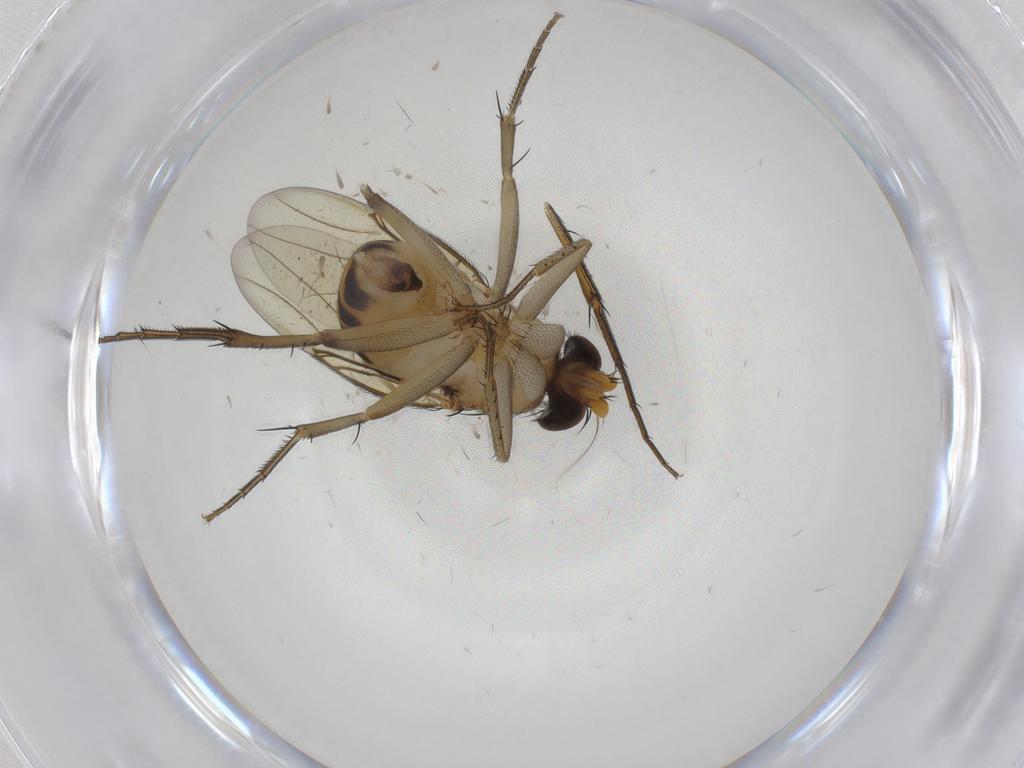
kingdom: Animalia
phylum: Arthropoda
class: Insecta
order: Diptera
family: Phoridae
